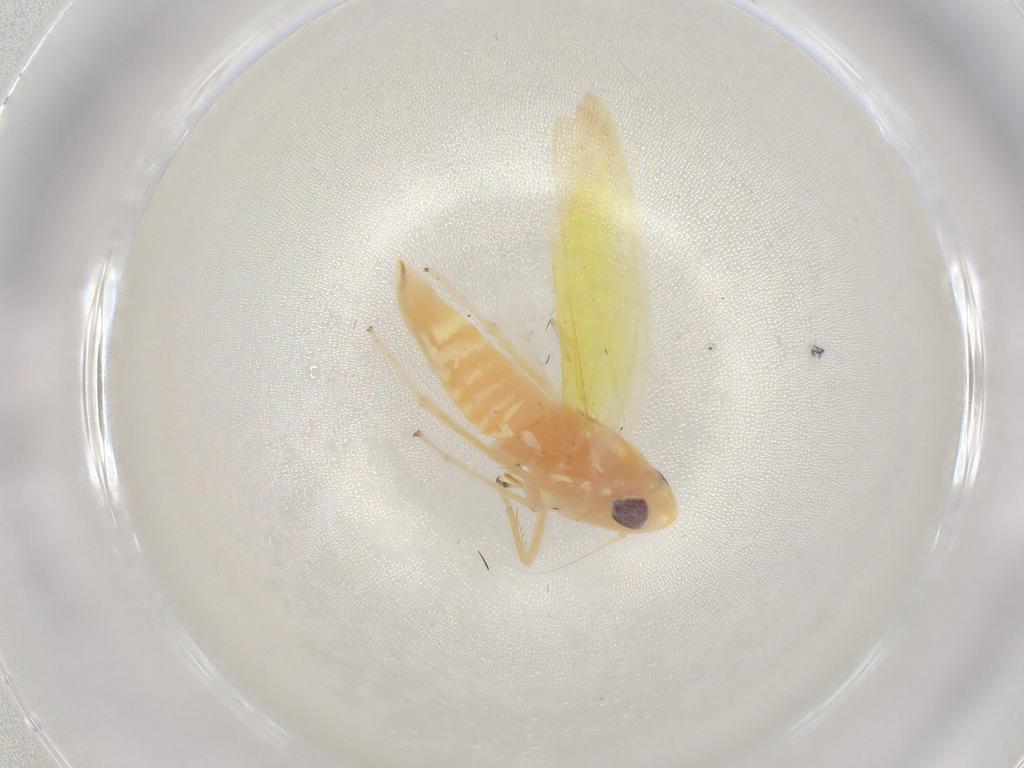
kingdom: Animalia
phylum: Arthropoda
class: Insecta
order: Hemiptera
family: Cicadellidae
